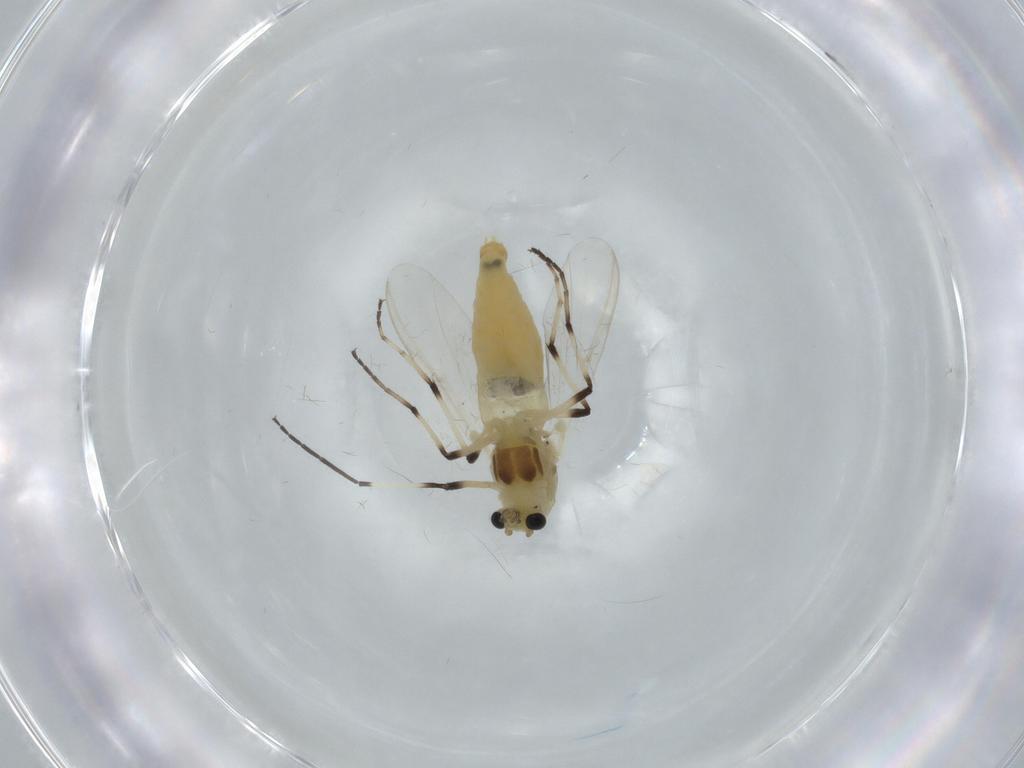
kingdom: Animalia
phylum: Arthropoda
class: Insecta
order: Diptera
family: Chironomidae
